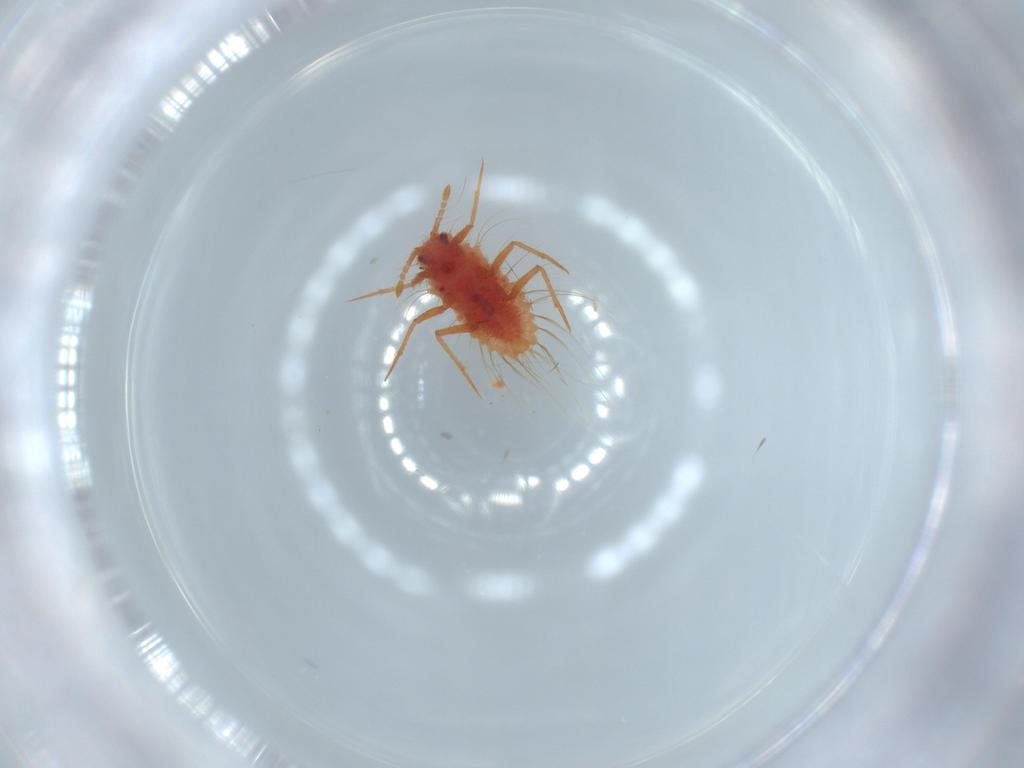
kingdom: Animalia
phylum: Arthropoda
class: Insecta
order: Hemiptera
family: Monophlebidae
